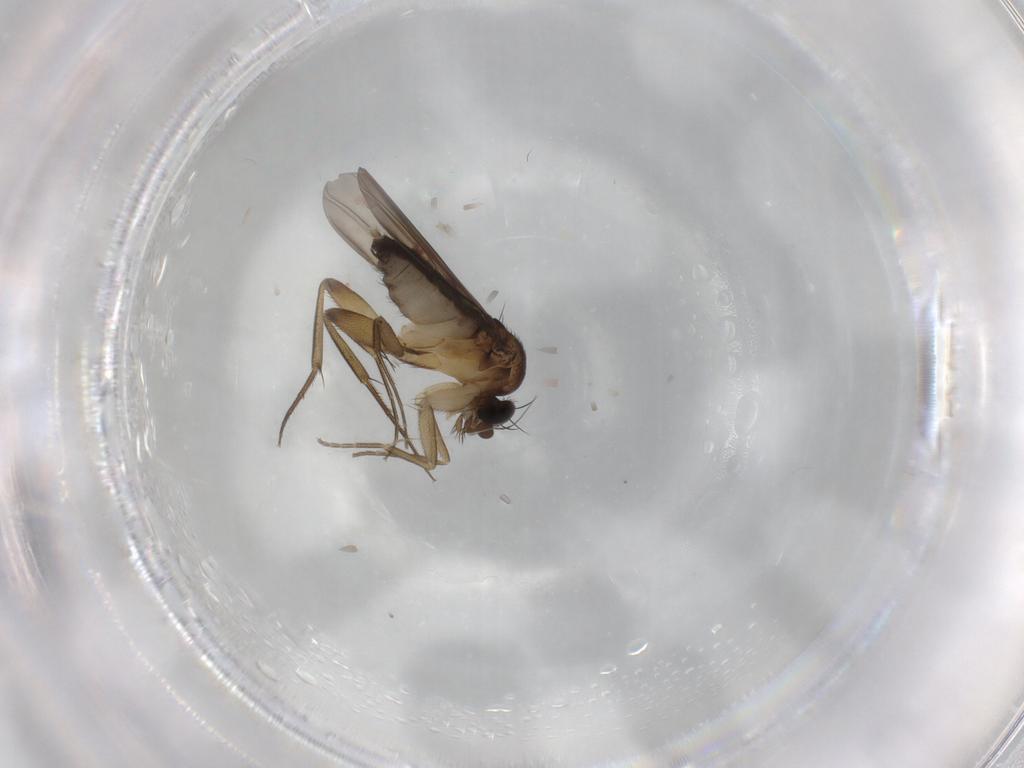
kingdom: Animalia
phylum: Arthropoda
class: Insecta
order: Diptera
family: Phoridae
